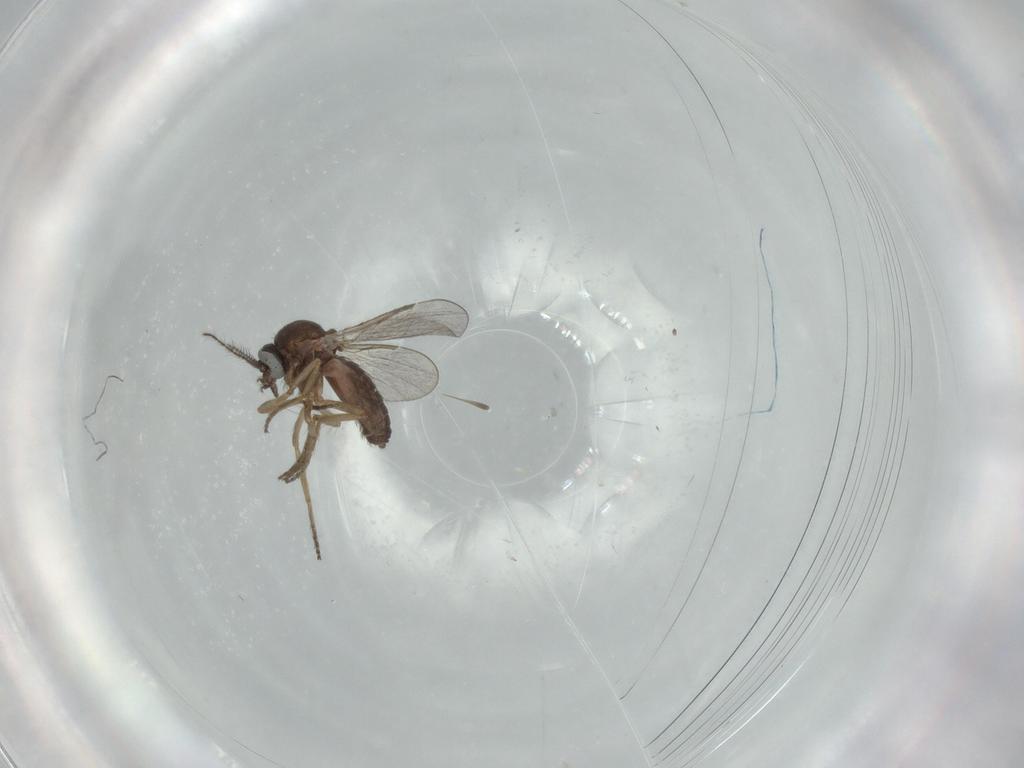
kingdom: Animalia
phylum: Arthropoda
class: Insecta
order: Diptera
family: Ceratopogonidae
